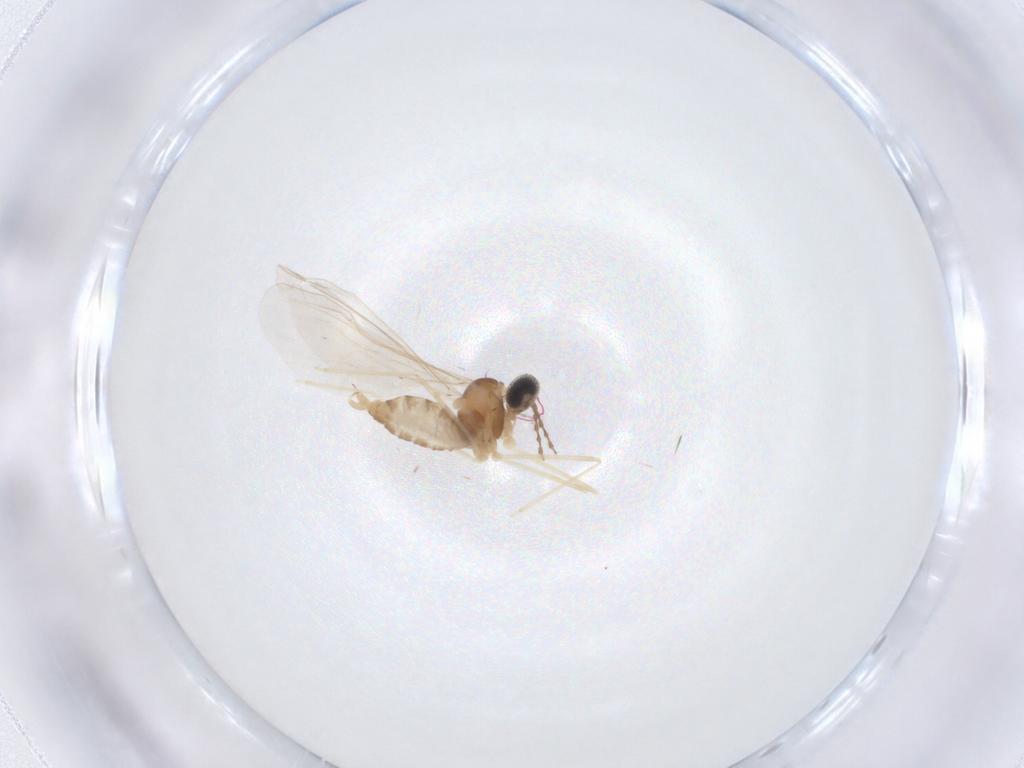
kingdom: Animalia
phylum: Arthropoda
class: Insecta
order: Diptera
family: Cecidomyiidae
